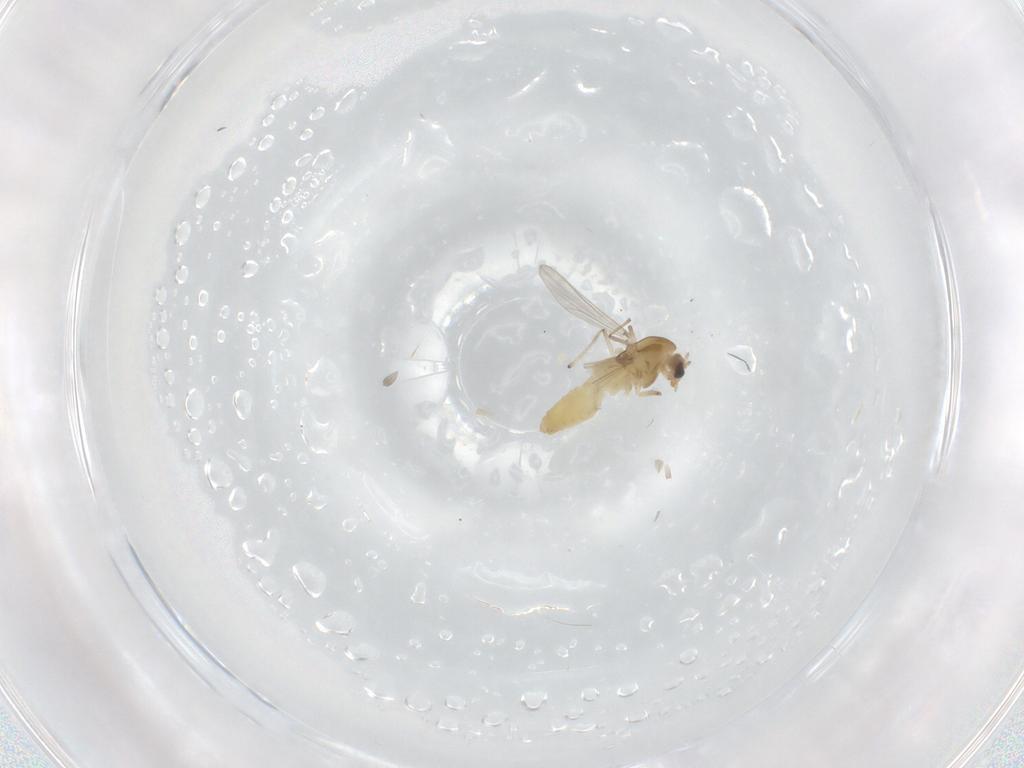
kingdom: Animalia
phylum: Arthropoda
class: Insecta
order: Diptera
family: Chironomidae
